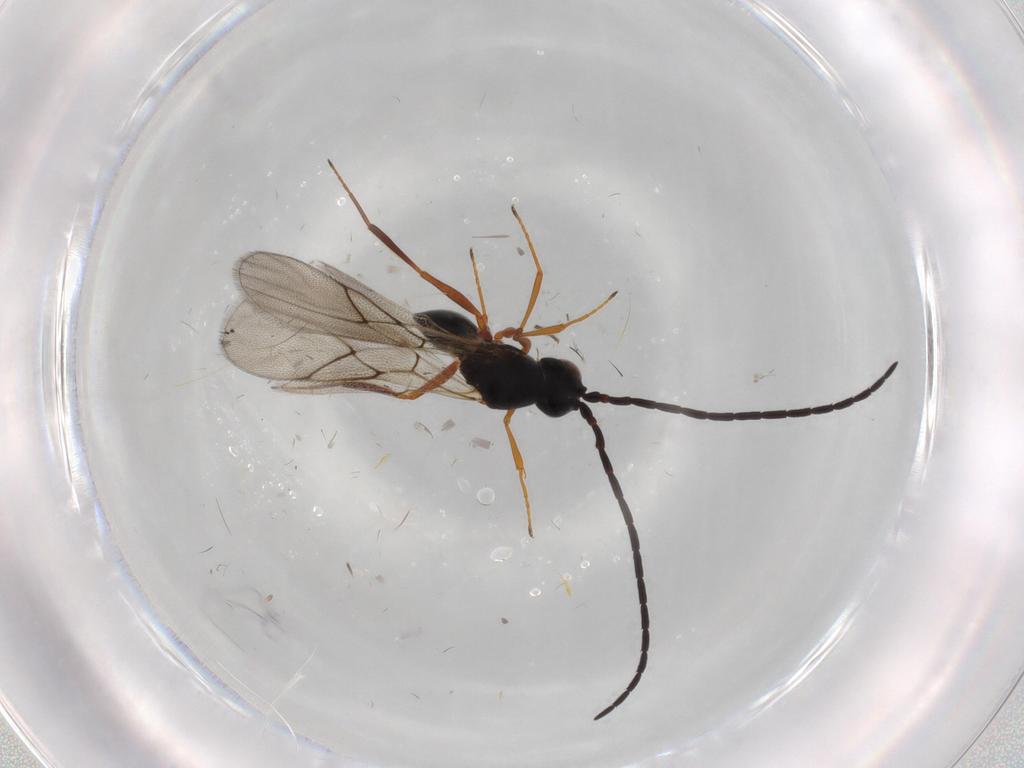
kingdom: Animalia
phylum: Arthropoda
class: Insecta
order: Hymenoptera
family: Figitidae
